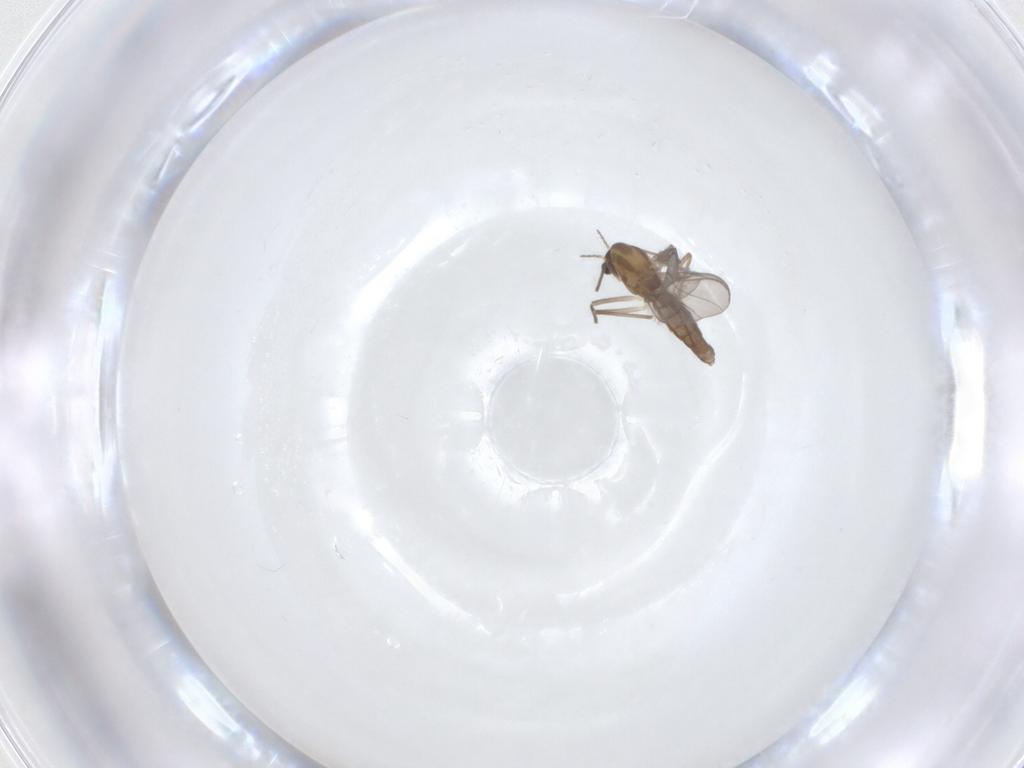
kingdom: Animalia
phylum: Arthropoda
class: Insecta
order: Diptera
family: Chironomidae
